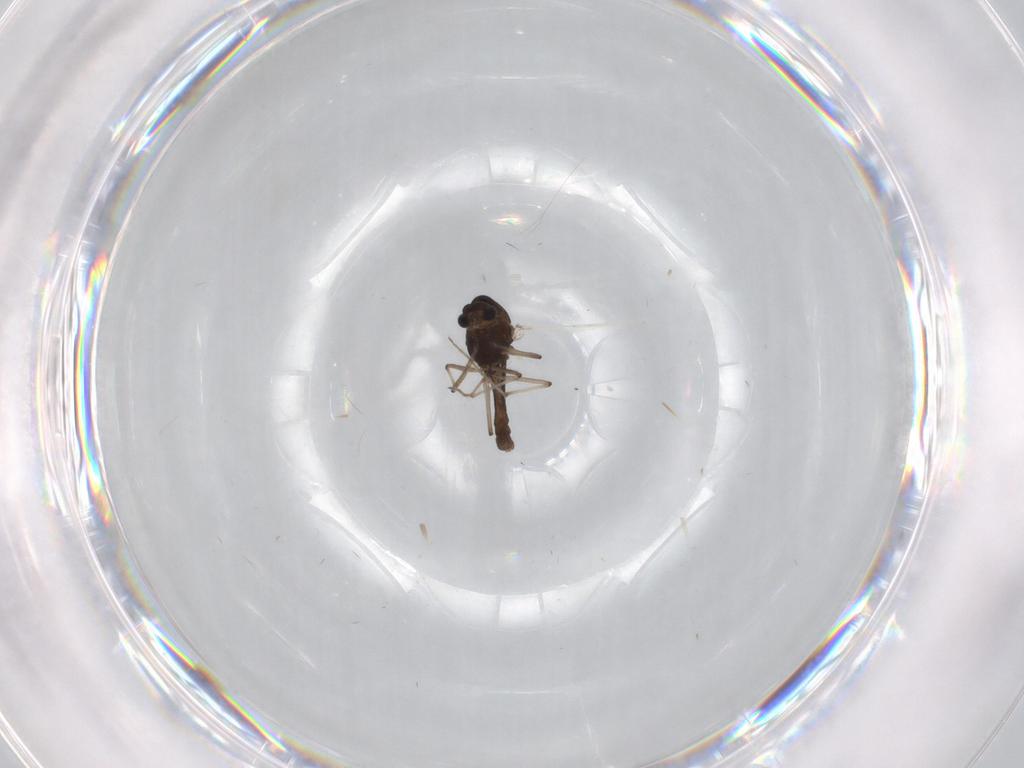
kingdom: Animalia
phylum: Arthropoda
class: Insecta
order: Diptera
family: Chironomidae
